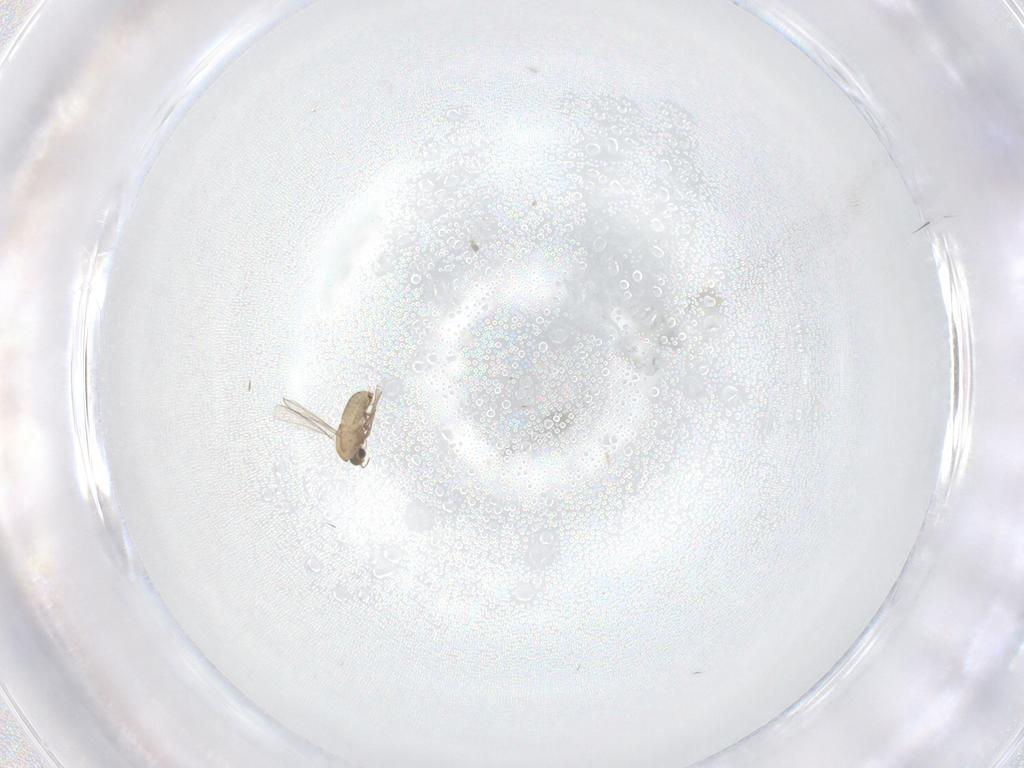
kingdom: Animalia
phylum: Arthropoda
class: Insecta
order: Diptera
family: Chironomidae
